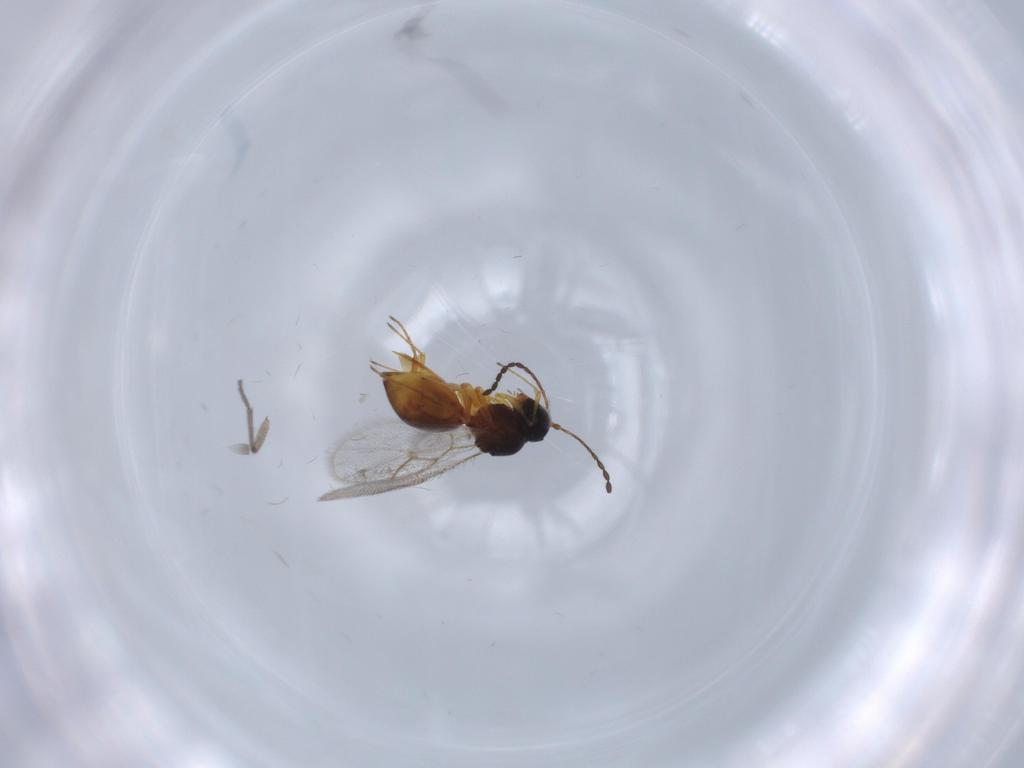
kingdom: Animalia
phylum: Arthropoda
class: Insecta
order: Hymenoptera
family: Figitidae
